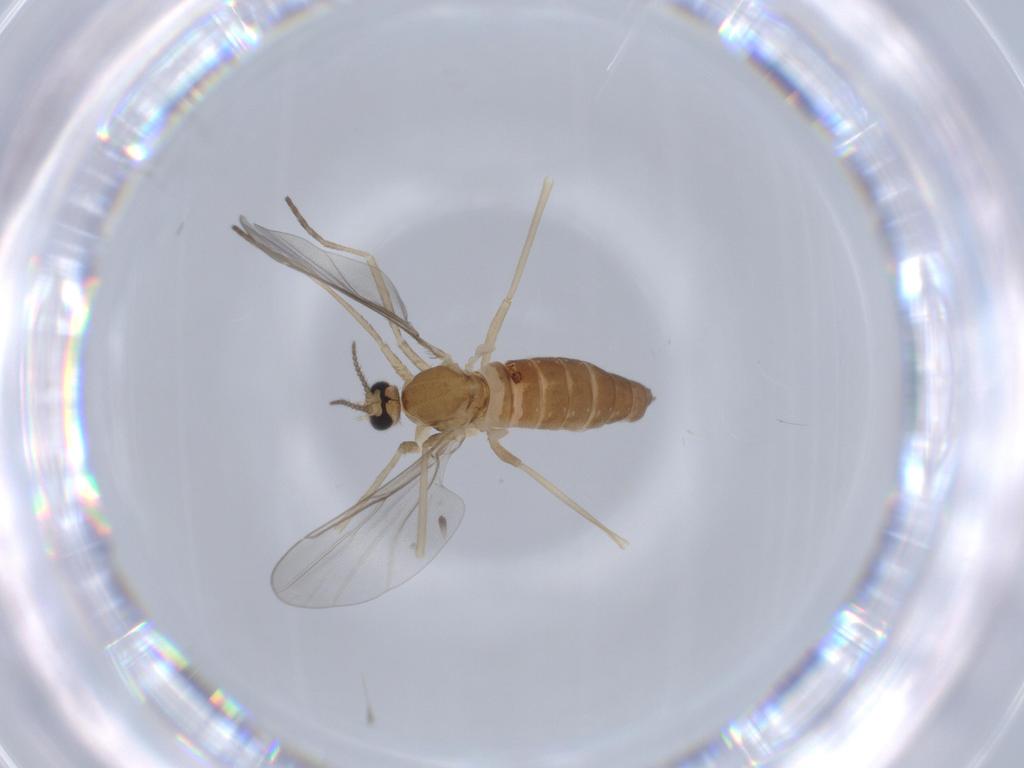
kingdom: Animalia
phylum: Arthropoda
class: Insecta
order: Diptera
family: Cecidomyiidae
